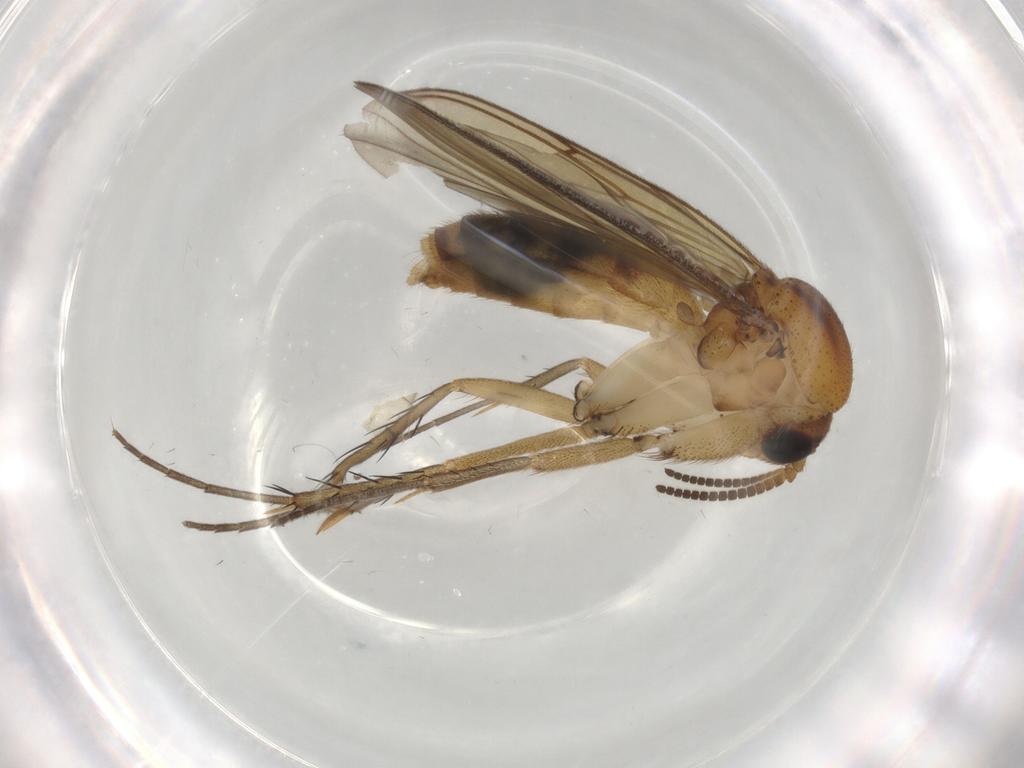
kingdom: Animalia
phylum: Arthropoda
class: Insecta
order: Diptera
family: Mycetophilidae
